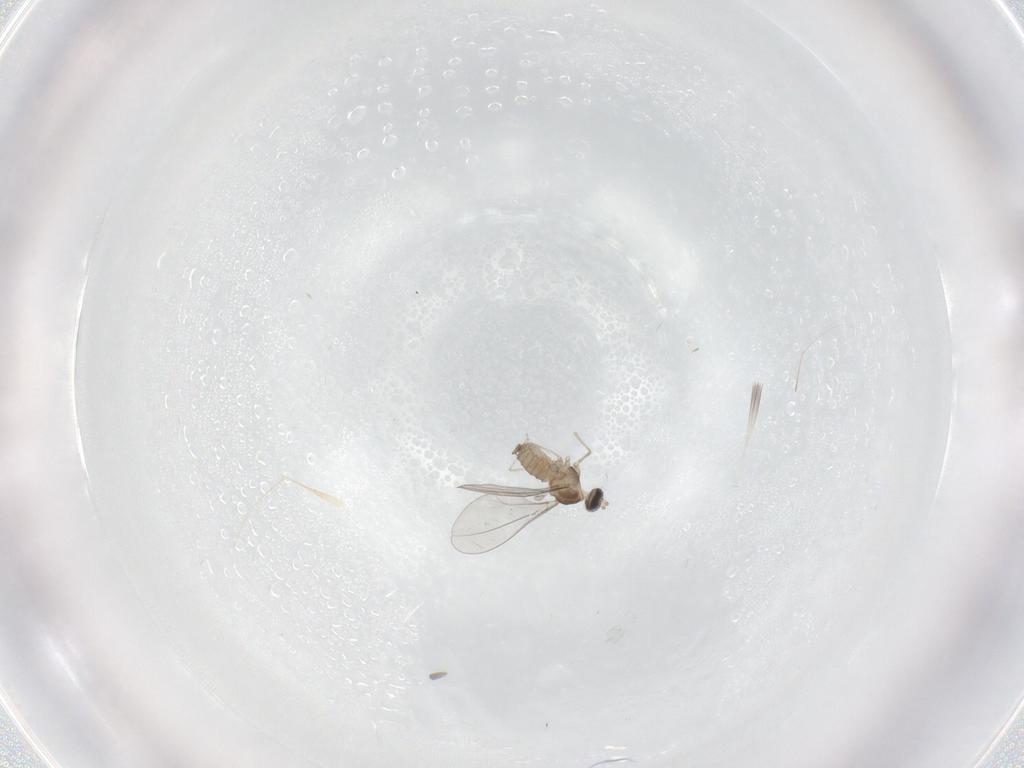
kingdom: Animalia
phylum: Arthropoda
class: Insecta
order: Diptera
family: Cecidomyiidae
